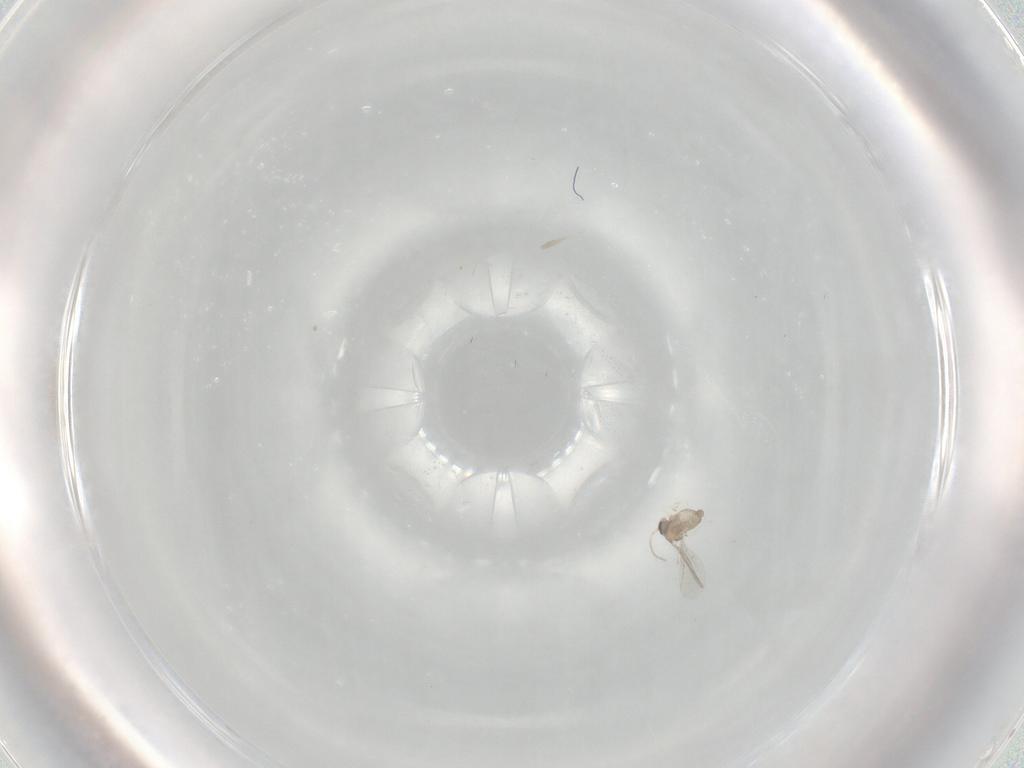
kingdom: Animalia
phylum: Arthropoda
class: Insecta
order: Diptera
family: Cecidomyiidae
